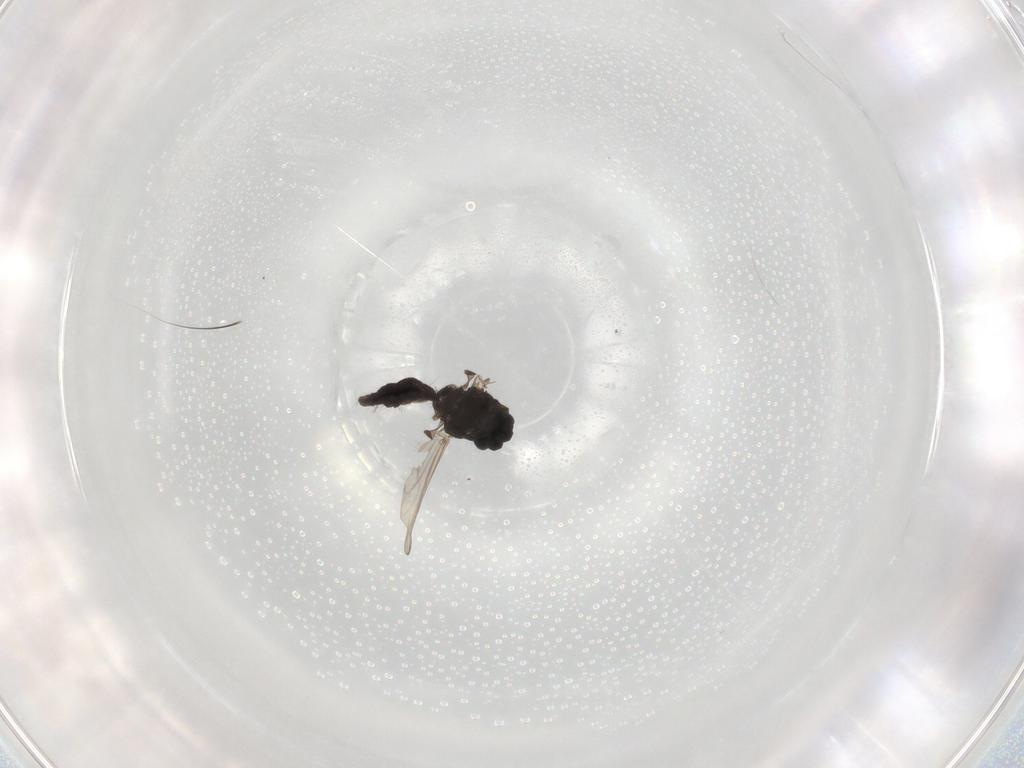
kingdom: Animalia
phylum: Arthropoda
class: Insecta
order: Diptera
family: Chironomidae
